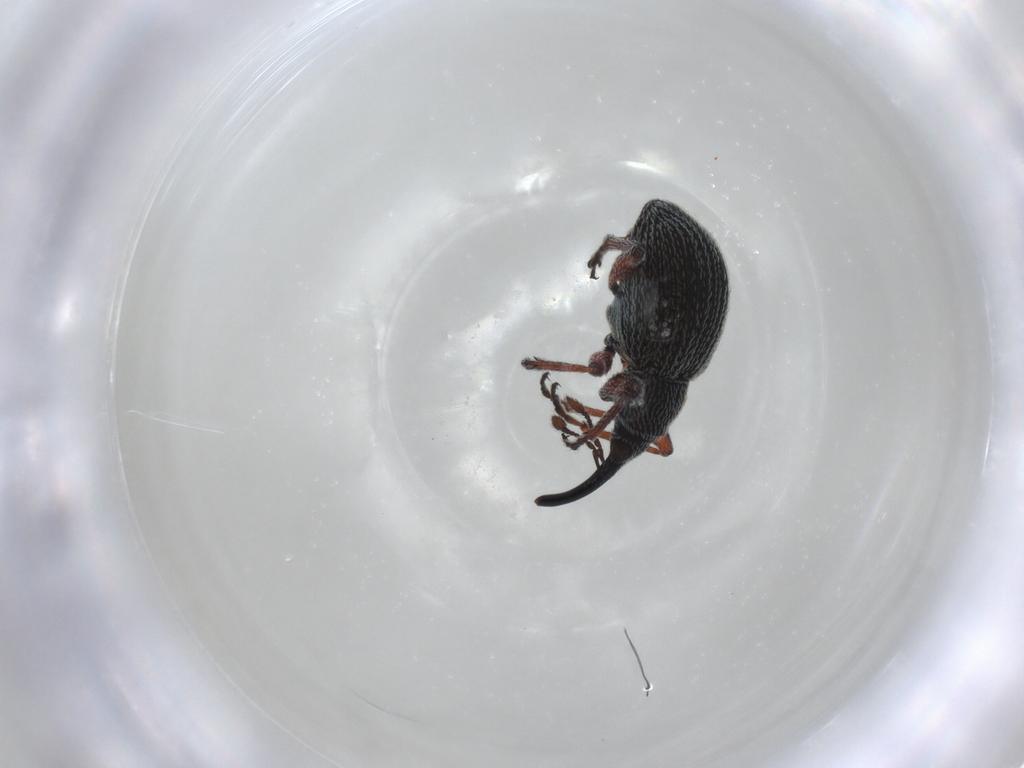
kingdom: Animalia
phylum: Arthropoda
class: Insecta
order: Coleoptera
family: Brentidae
